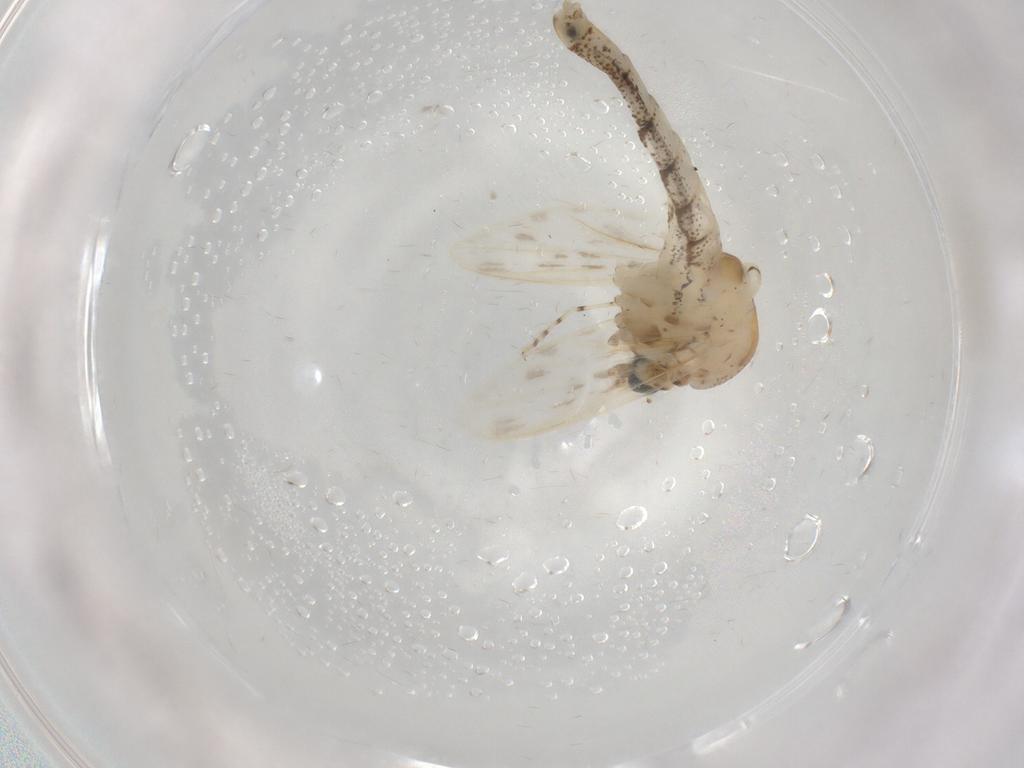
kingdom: Animalia
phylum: Arthropoda
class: Insecta
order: Diptera
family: Chaoboridae
